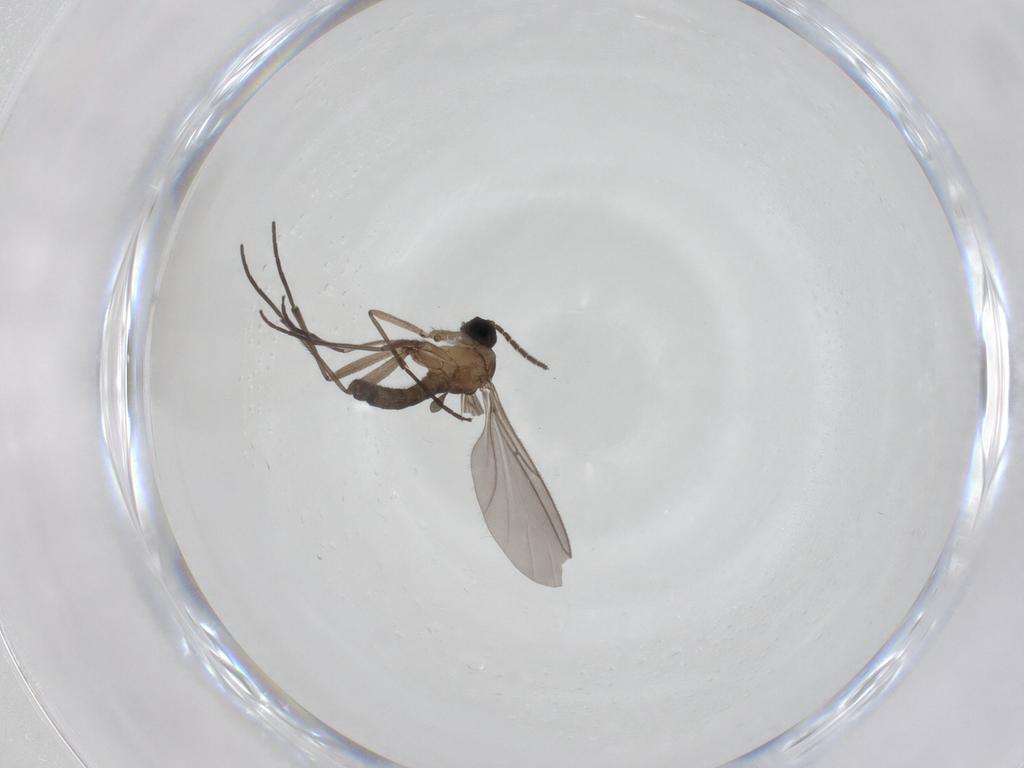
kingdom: Animalia
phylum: Arthropoda
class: Insecta
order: Diptera
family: Sciaridae
